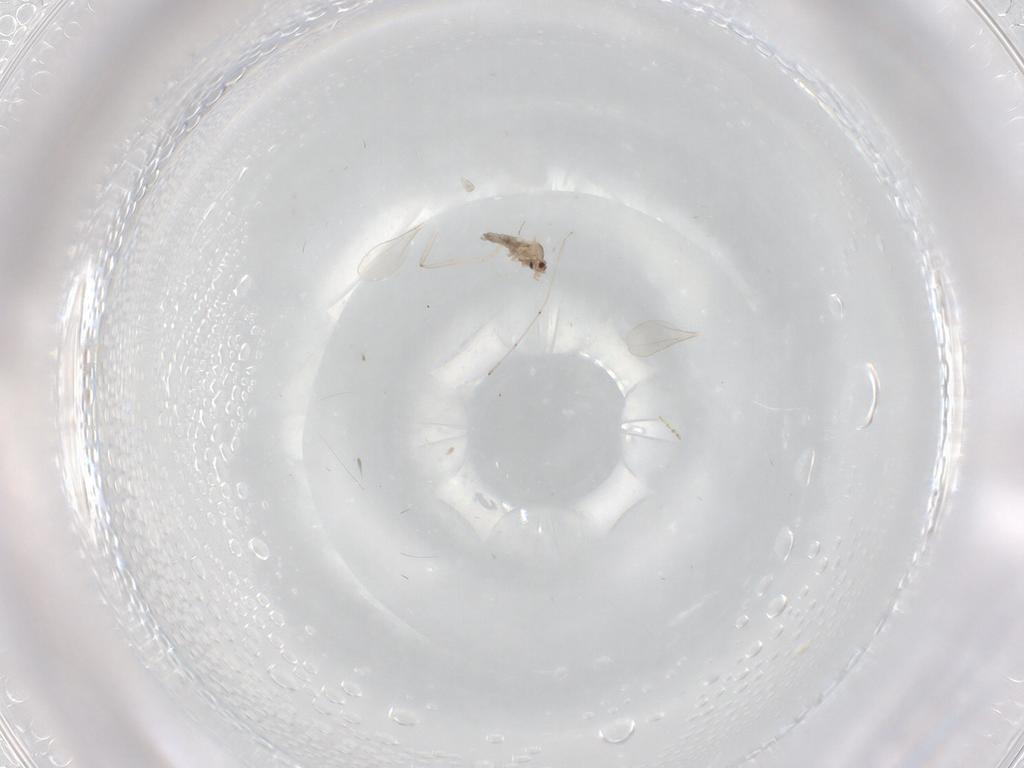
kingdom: Animalia
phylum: Arthropoda
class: Insecta
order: Diptera
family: Cecidomyiidae
